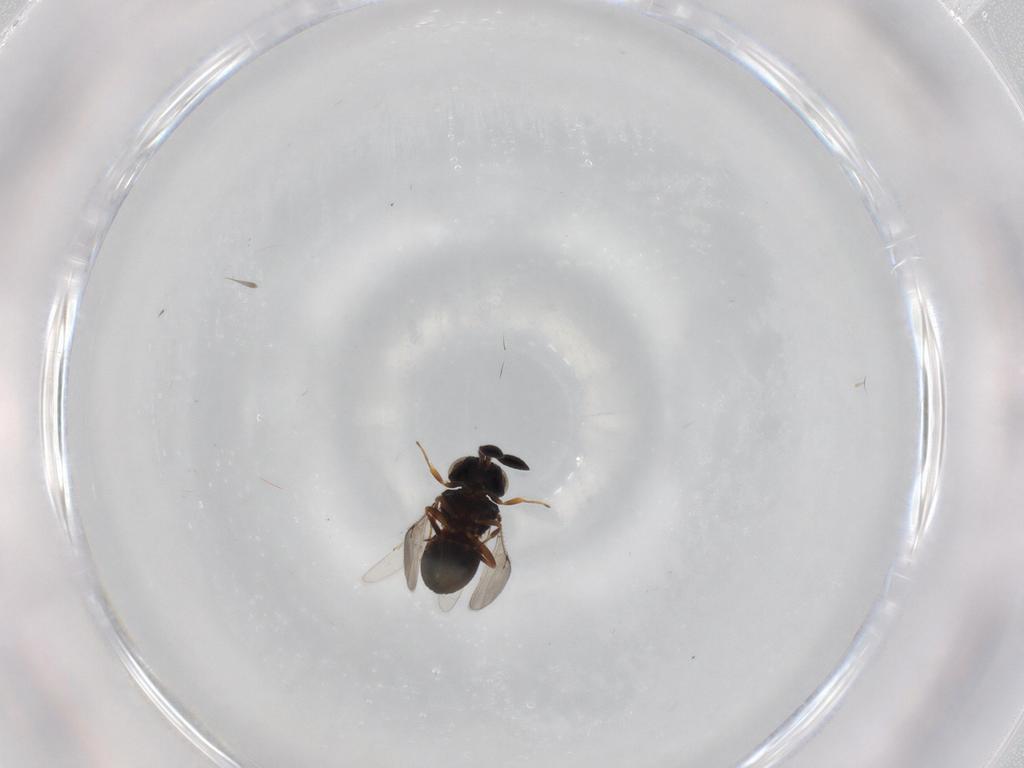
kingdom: Animalia
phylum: Arthropoda
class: Insecta
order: Hymenoptera
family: Scelionidae
